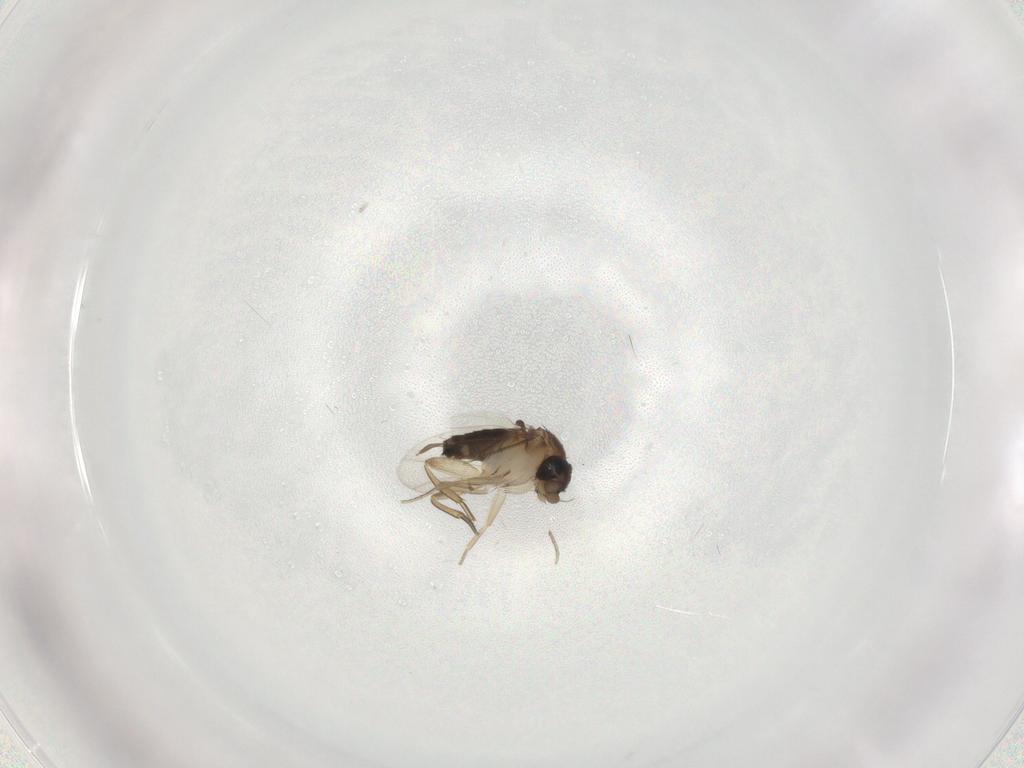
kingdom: Animalia
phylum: Arthropoda
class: Insecta
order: Diptera
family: Cecidomyiidae
